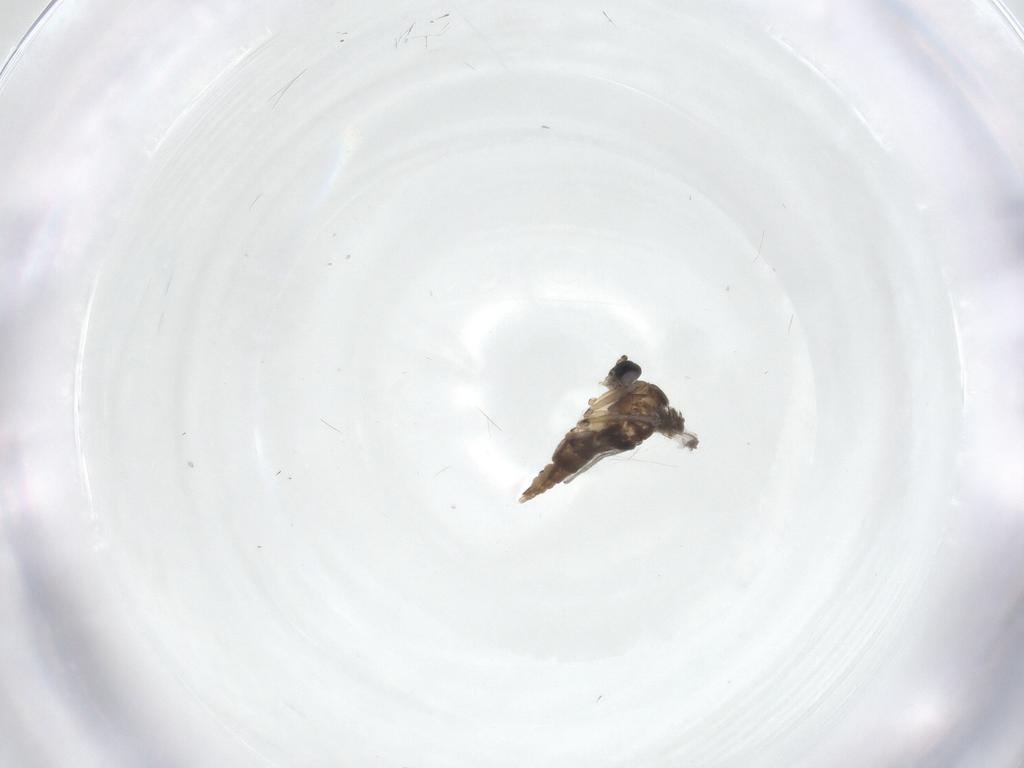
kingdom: Animalia
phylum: Arthropoda
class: Insecta
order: Diptera
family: Sciaridae
